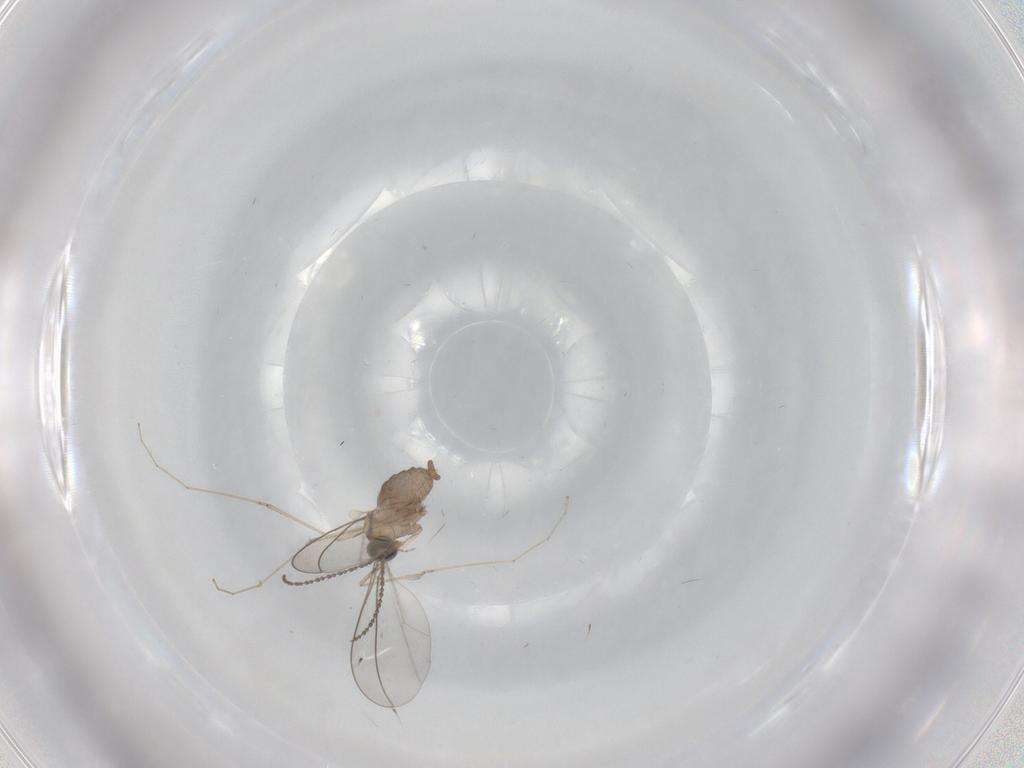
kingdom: Animalia
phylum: Arthropoda
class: Insecta
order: Diptera
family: Cecidomyiidae
